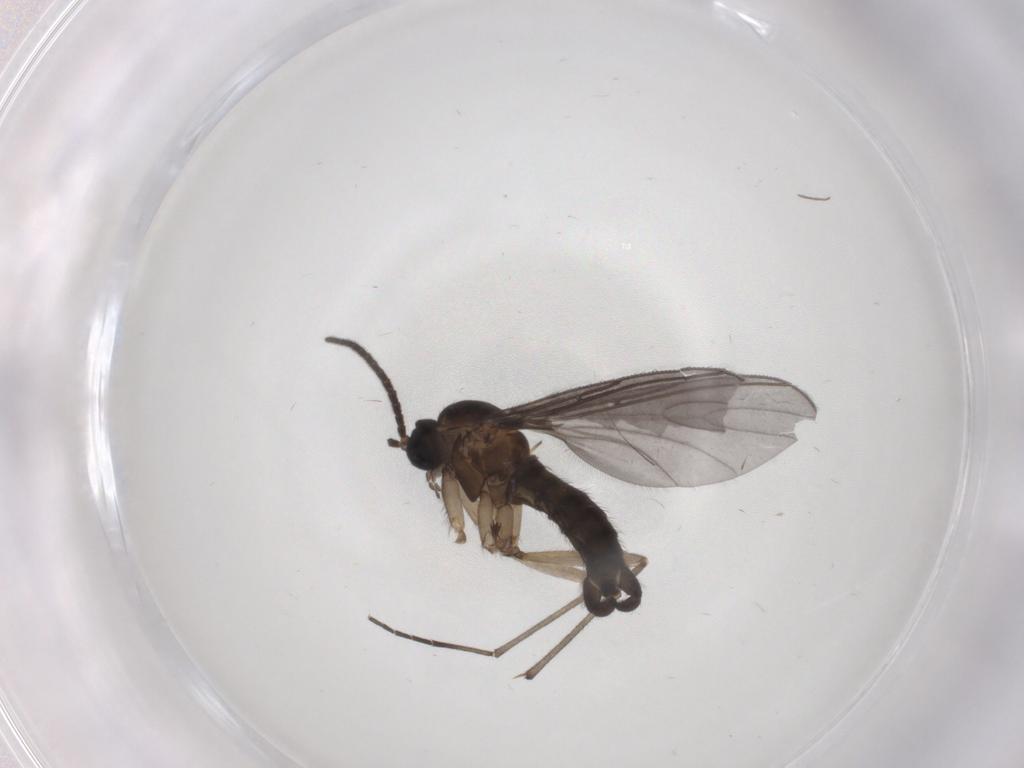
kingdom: Animalia
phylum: Arthropoda
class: Insecta
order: Diptera
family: Sciaridae
